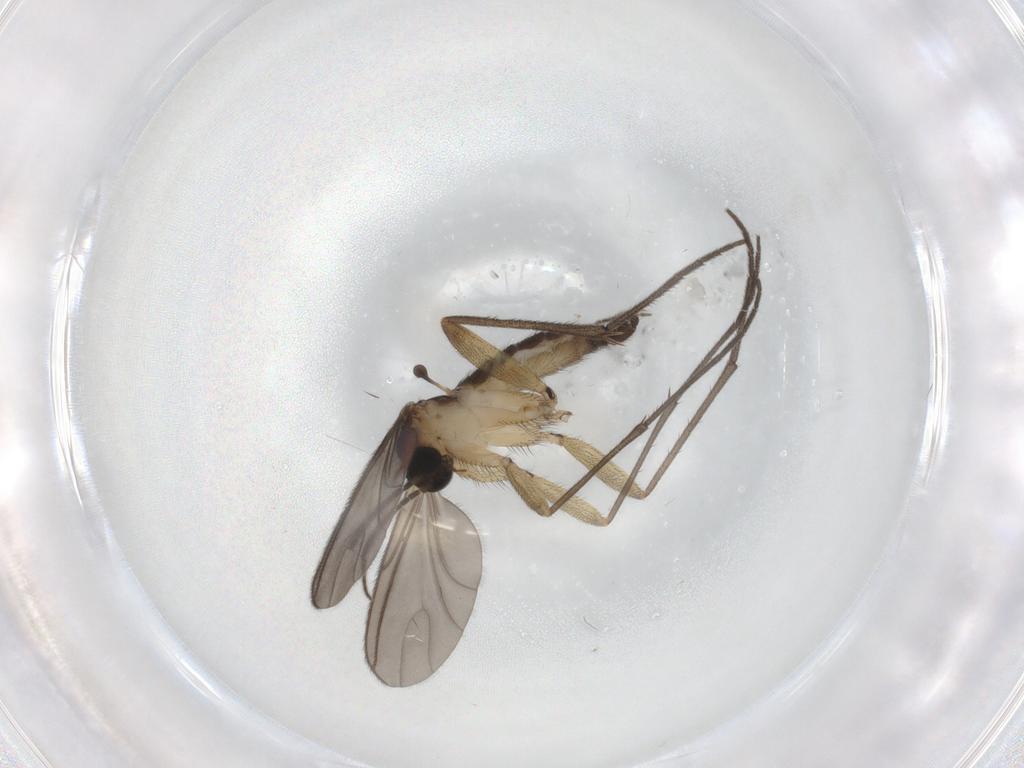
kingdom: Animalia
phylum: Arthropoda
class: Insecta
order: Diptera
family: Sciaridae
